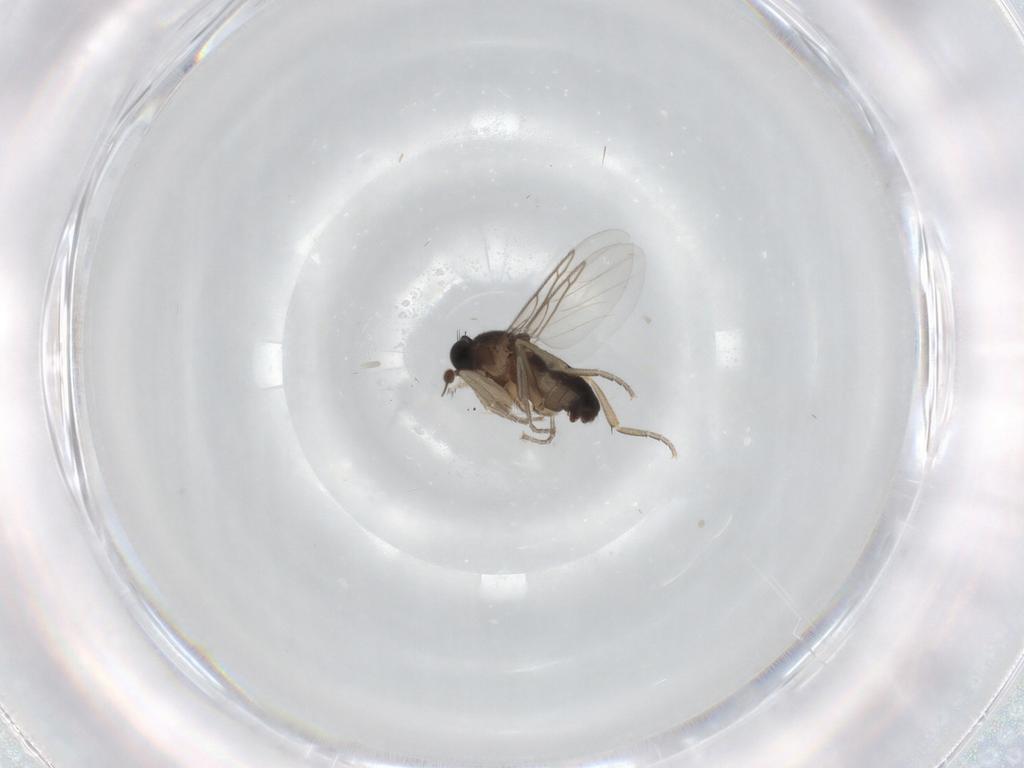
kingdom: Animalia
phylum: Arthropoda
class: Insecta
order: Diptera
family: Phoridae
